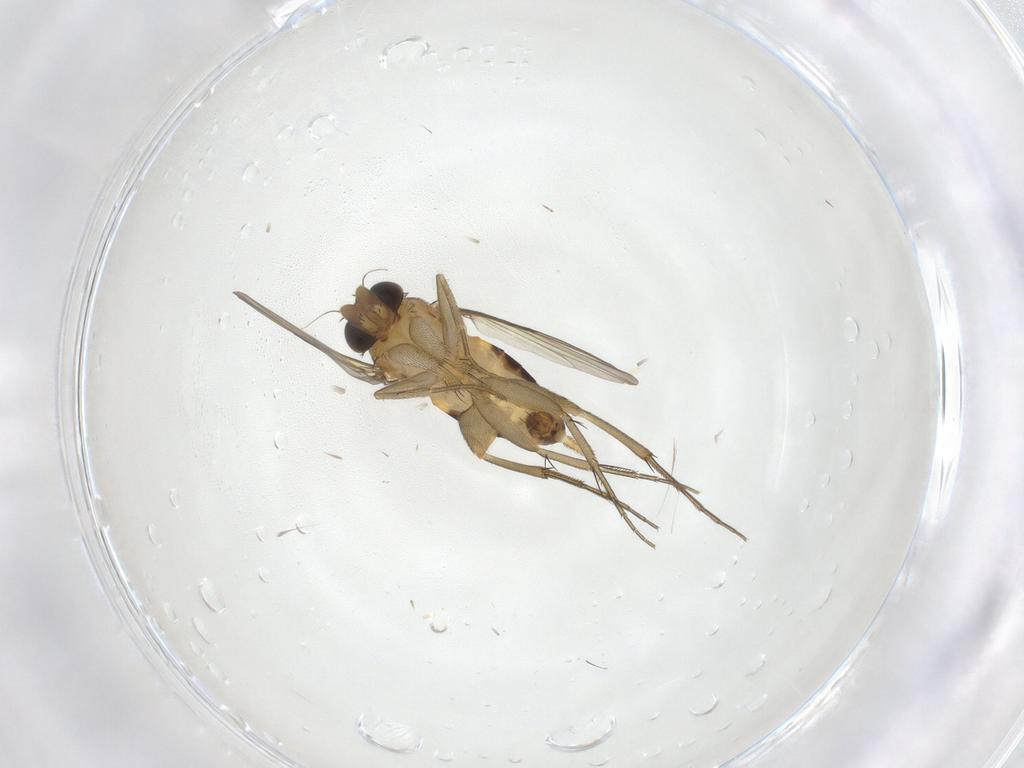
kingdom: Animalia
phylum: Arthropoda
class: Insecta
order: Diptera
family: Phoridae
